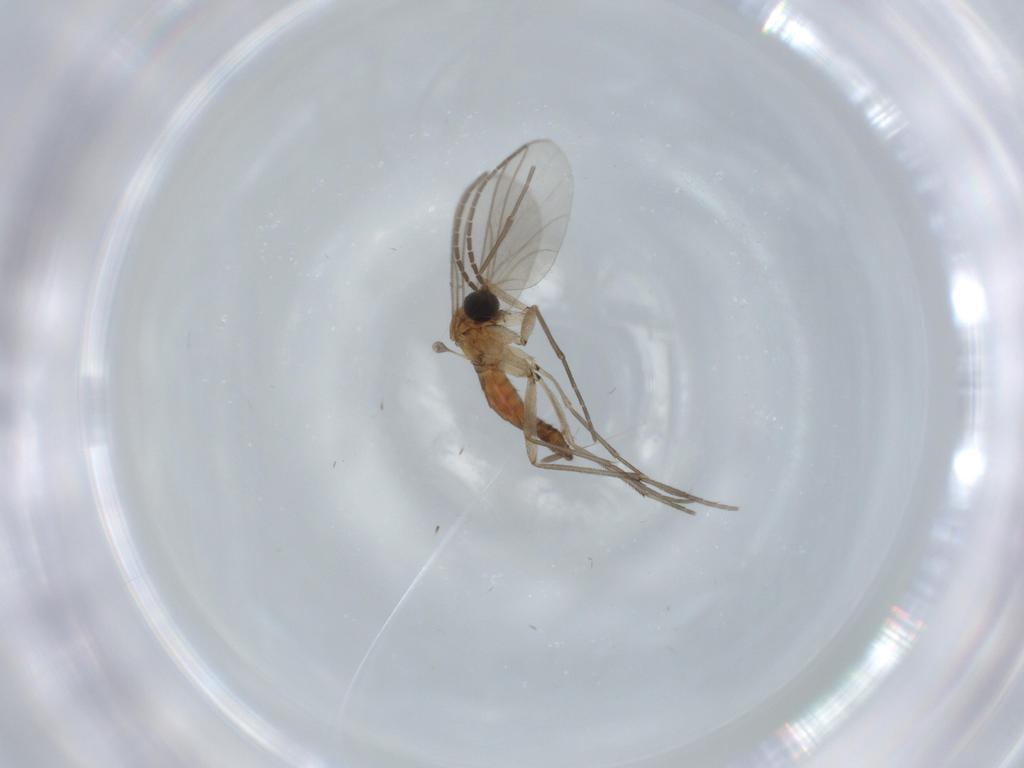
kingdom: Animalia
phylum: Arthropoda
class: Insecta
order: Diptera
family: Sciaridae
